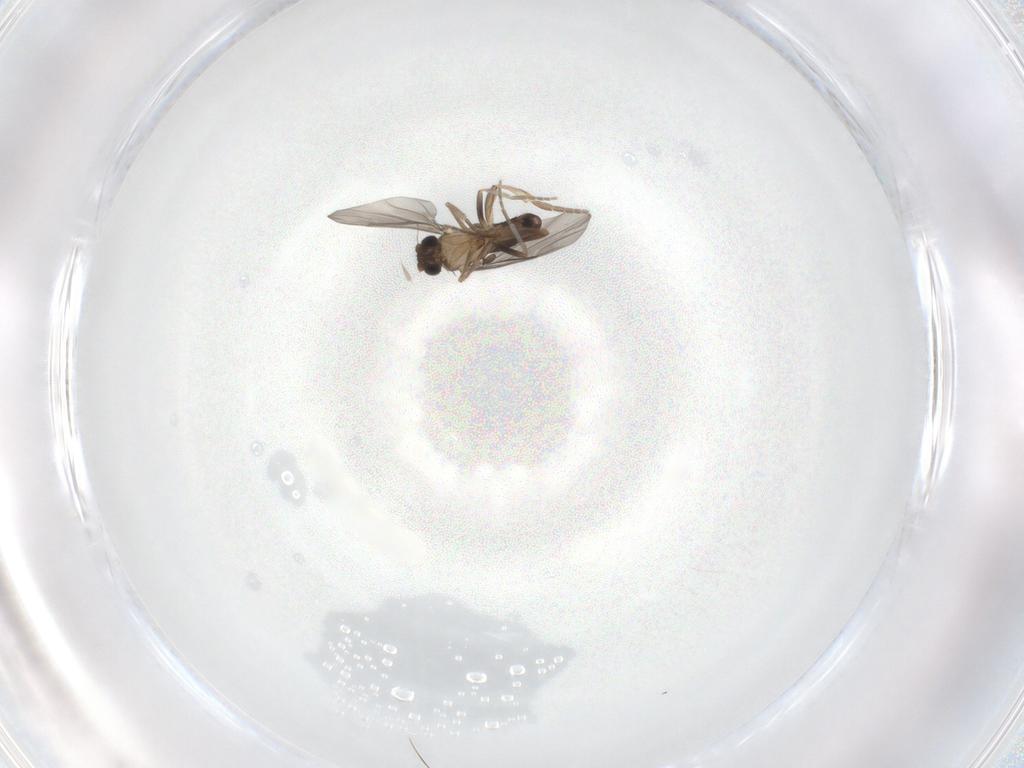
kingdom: Animalia
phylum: Arthropoda
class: Insecta
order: Diptera
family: Phoridae
